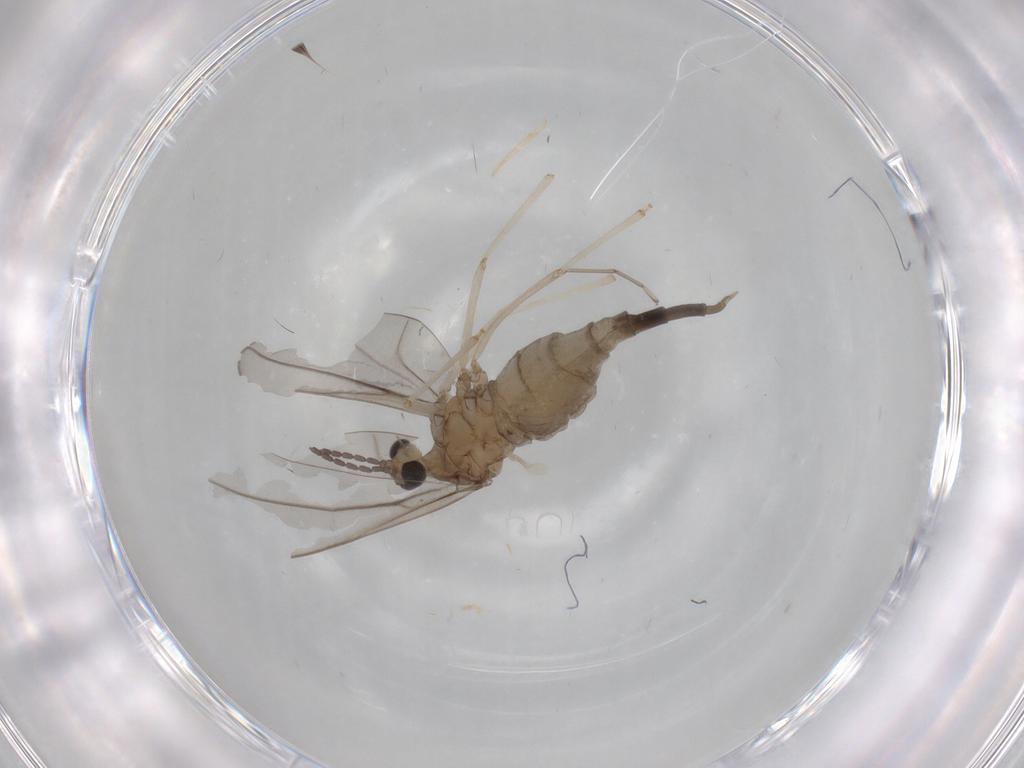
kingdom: Animalia
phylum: Arthropoda
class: Insecta
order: Diptera
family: Cecidomyiidae
